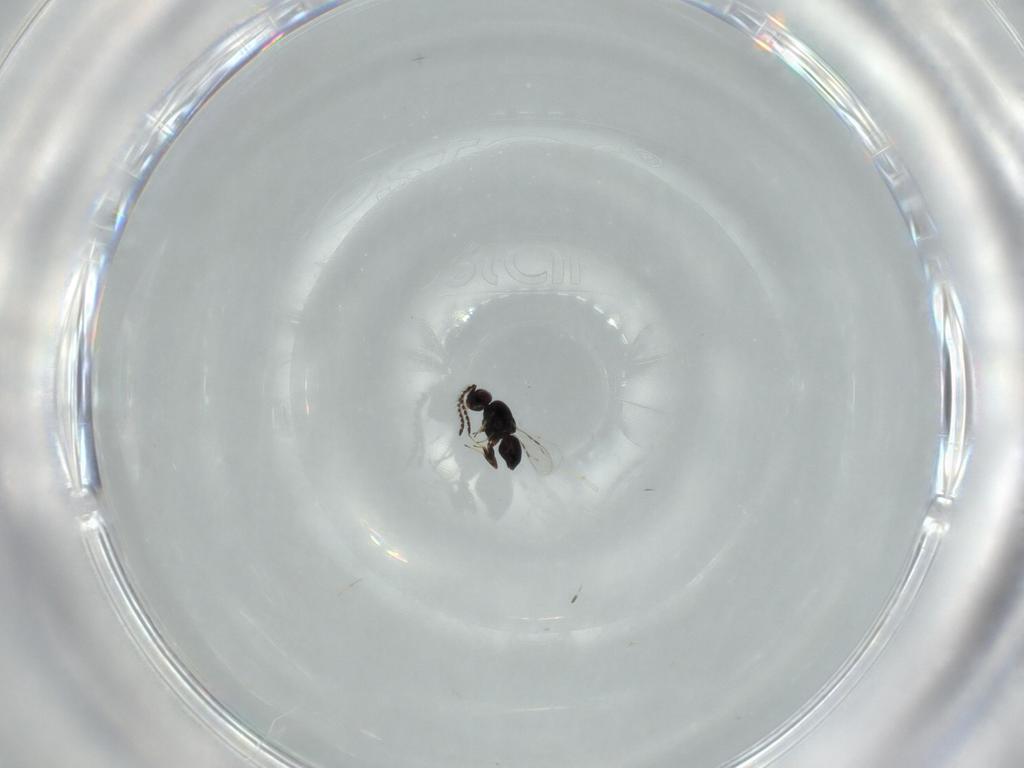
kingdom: Animalia
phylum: Arthropoda
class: Insecta
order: Hymenoptera
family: Ceraphronidae
